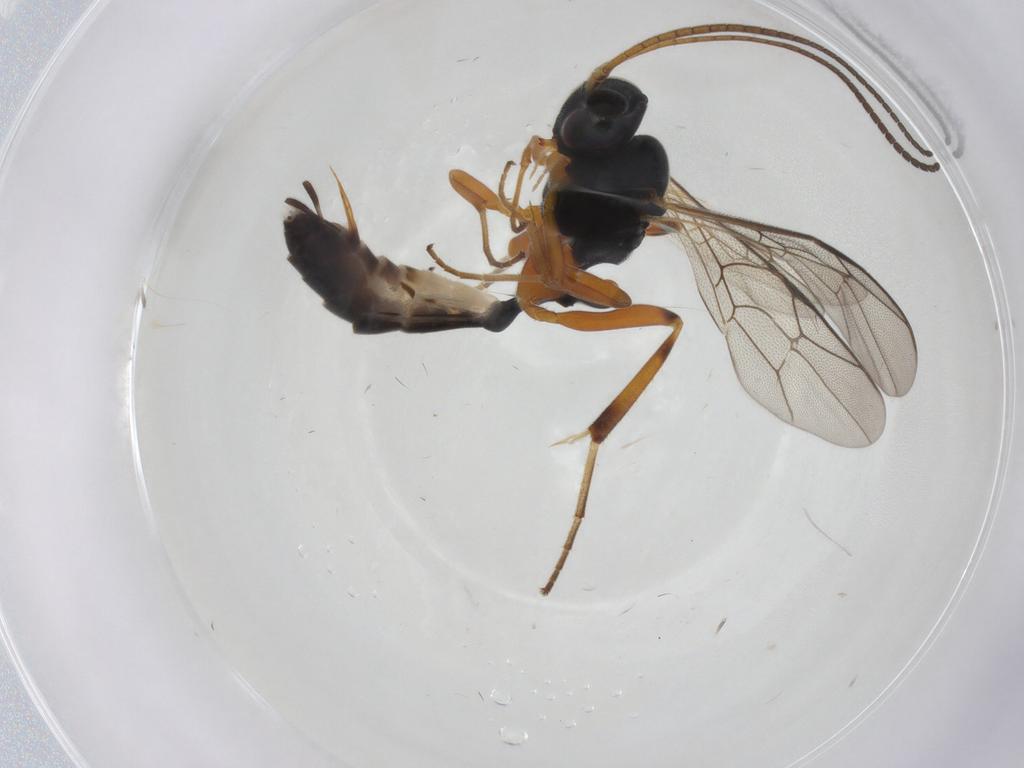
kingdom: Animalia
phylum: Arthropoda
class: Insecta
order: Hymenoptera
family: Ichneumonidae
